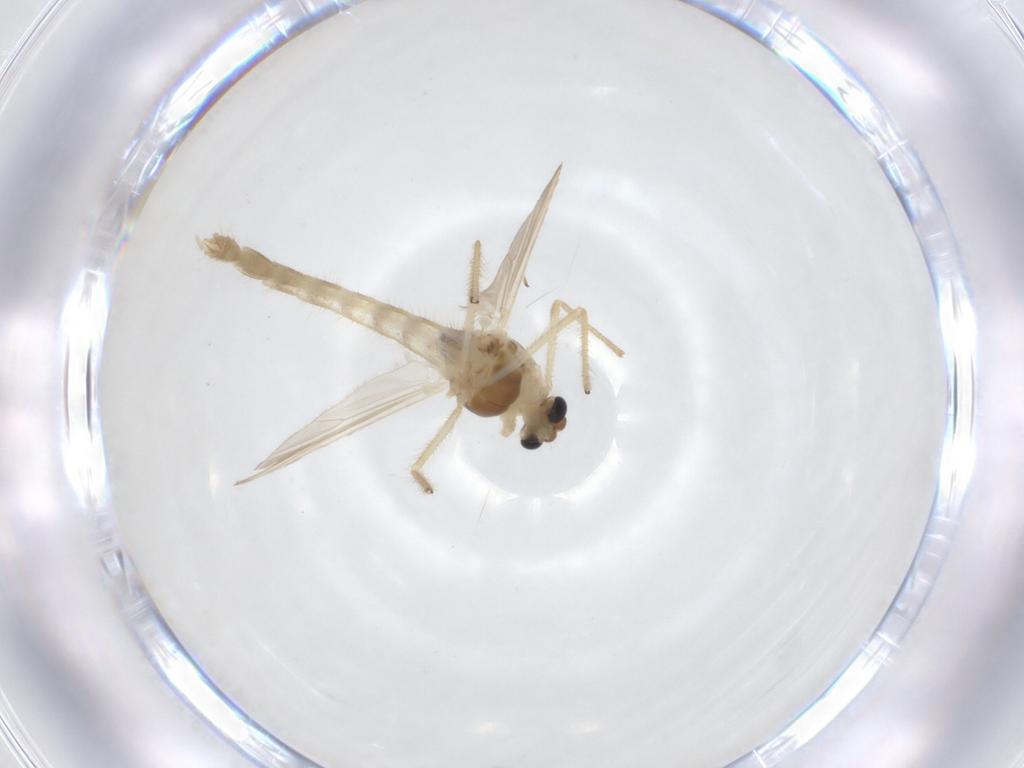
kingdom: Animalia
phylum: Arthropoda
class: Insecta
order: Diptera
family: Chironomidae
